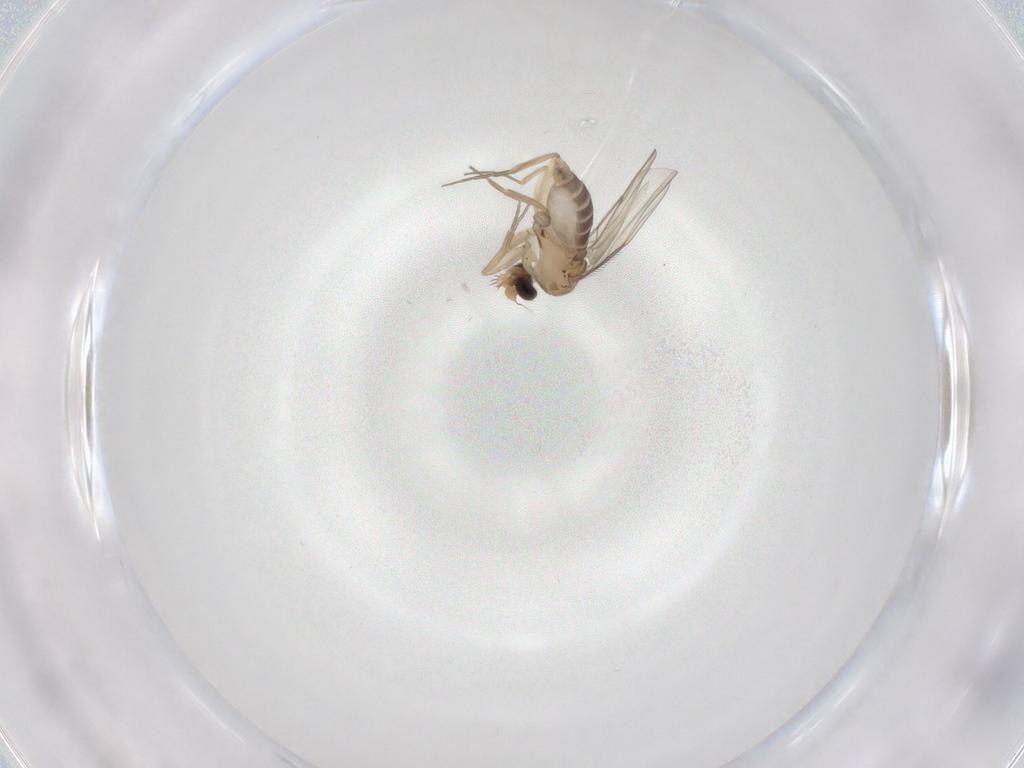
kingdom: Animalia
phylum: Arthropoda
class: Insecta
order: Diptera
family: Phoridae
